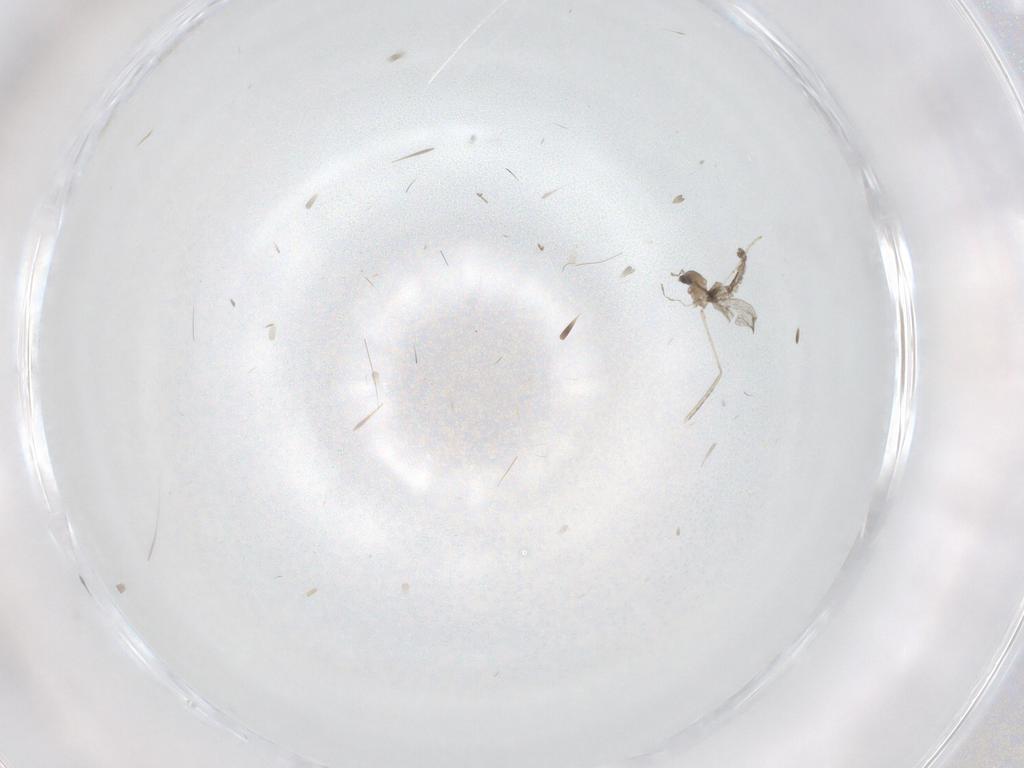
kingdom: Animalia
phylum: Arthropoda
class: Insecta
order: Diptera
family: Cecidomyiidae
